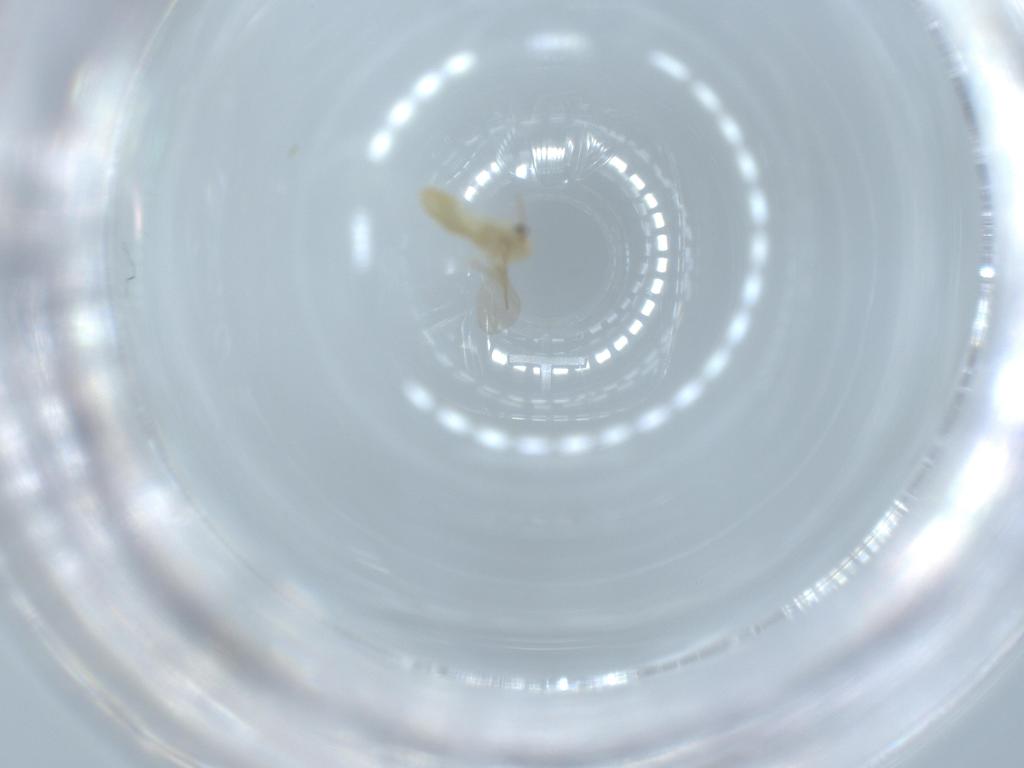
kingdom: Animalia
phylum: Arthropoda
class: Insecta
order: Diptera
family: Chironomidae
